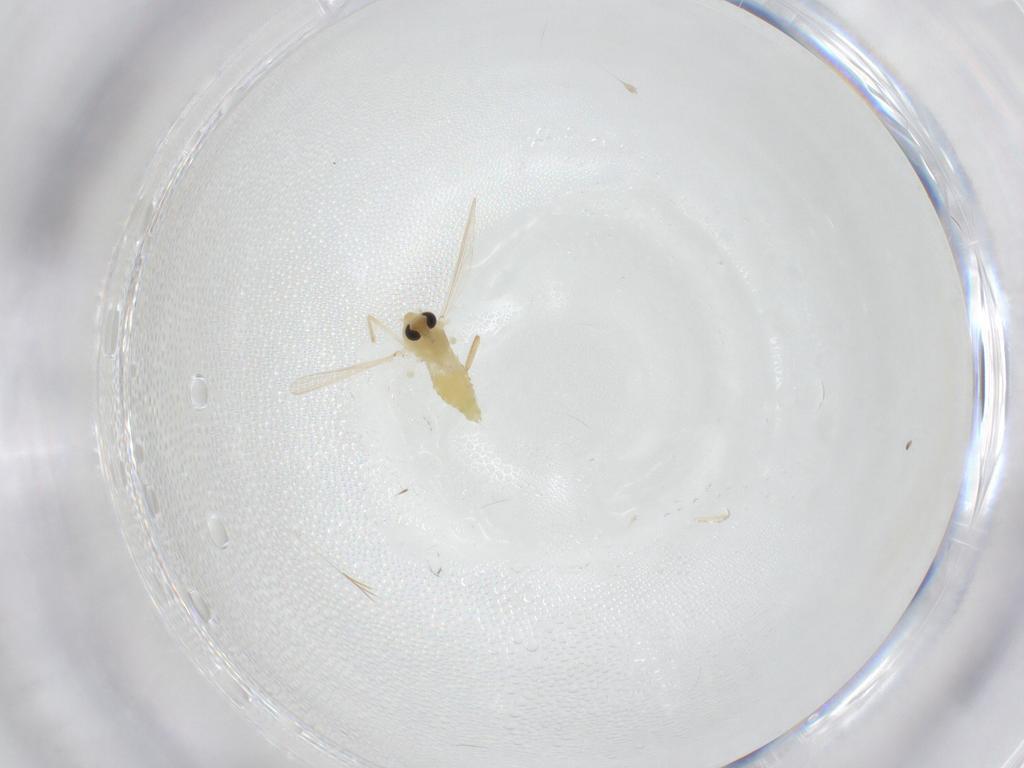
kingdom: Animalia
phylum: Arthropoda
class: Insecta
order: Diptera
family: Chironomidae
